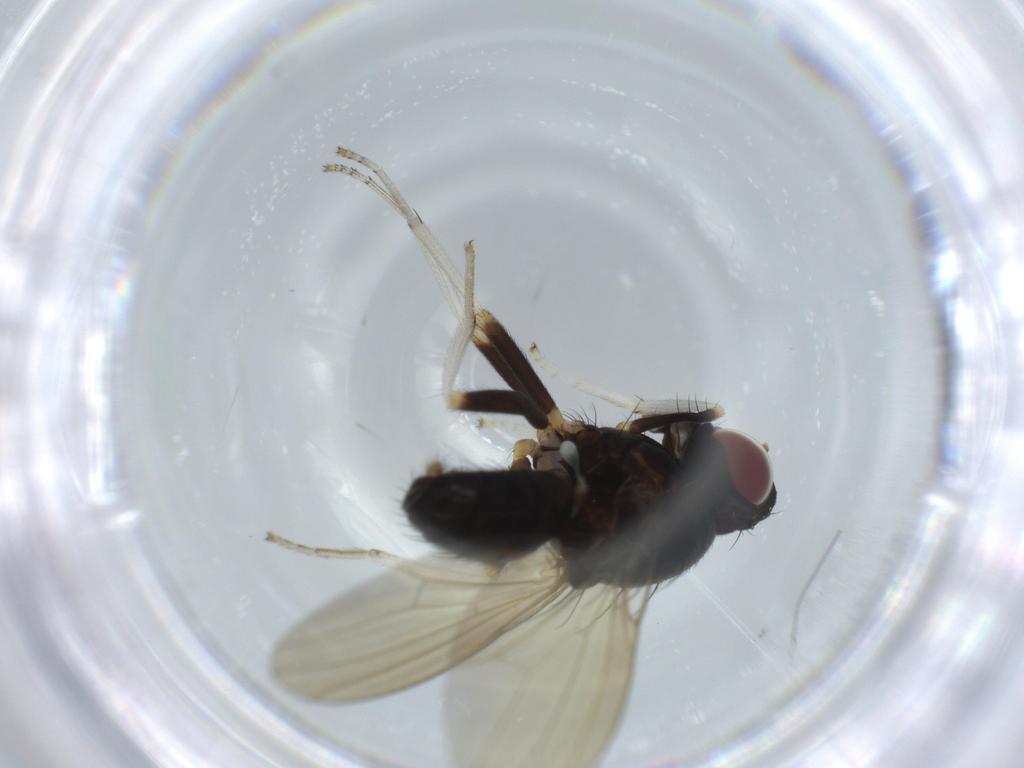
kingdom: Animalia
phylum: Arthropoda
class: Insecta
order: Diptera
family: Lauxaniidae
